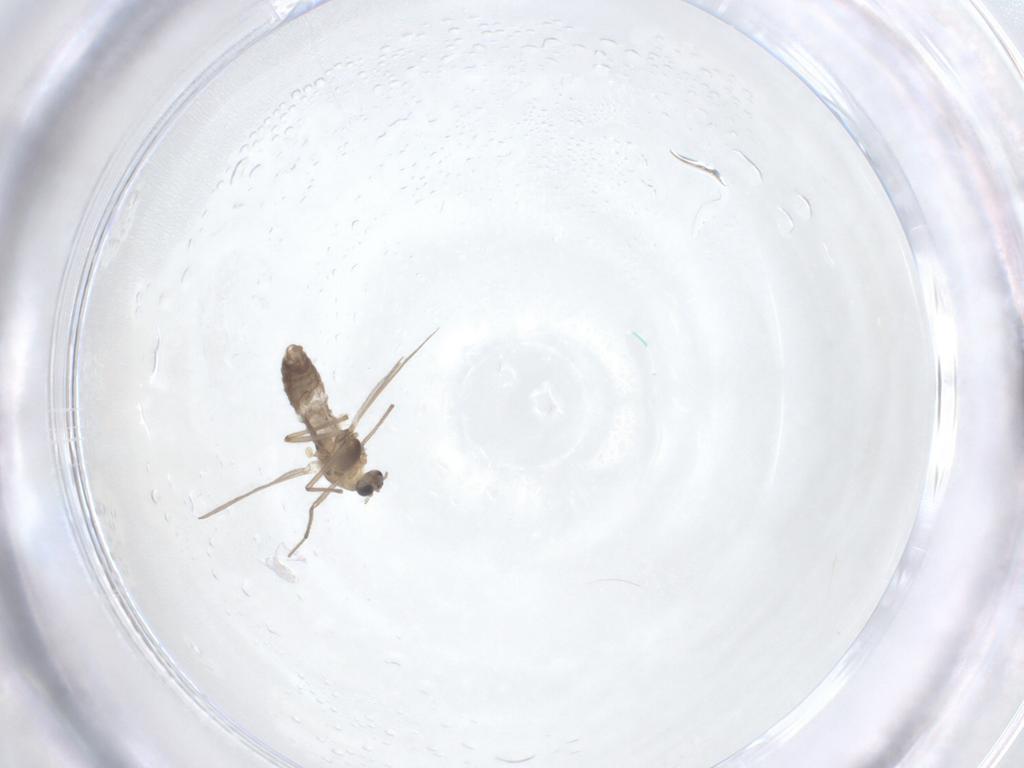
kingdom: Animalia
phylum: Arthropoda
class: Insecta
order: Diptera
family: Chironomidae
